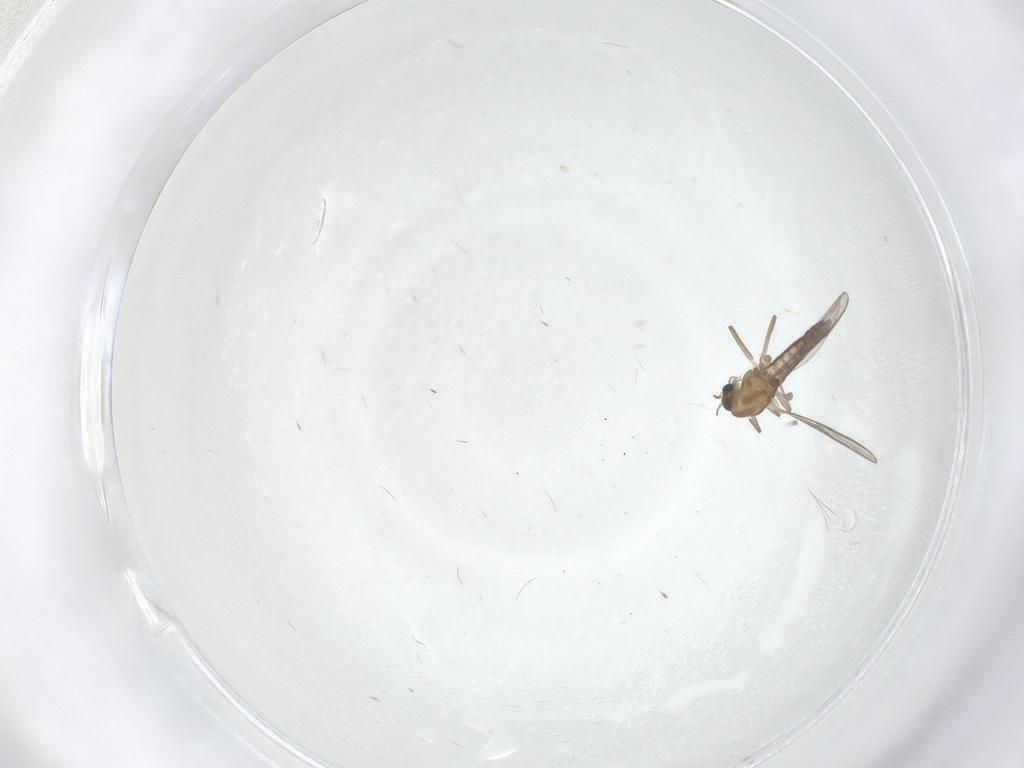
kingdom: Animalia
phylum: Arthropoda
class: Insecta
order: Diptera
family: Chironomidae
